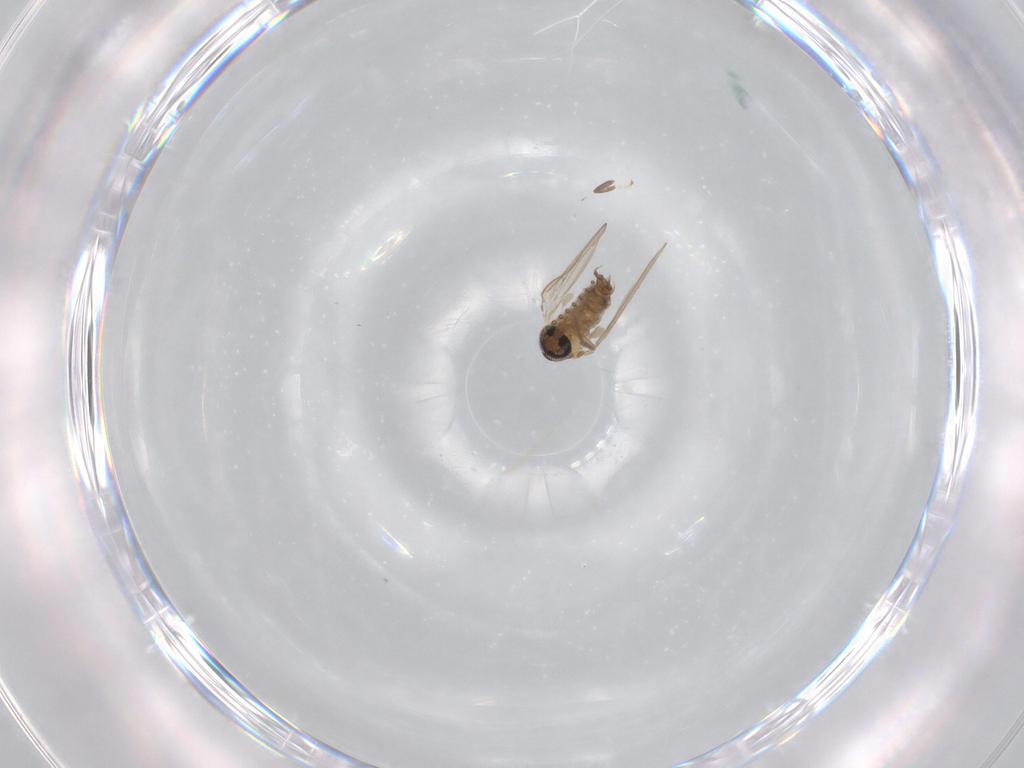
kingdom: Animalia
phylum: Arthropoda
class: Insecta
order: Diptera
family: Psychodidae
